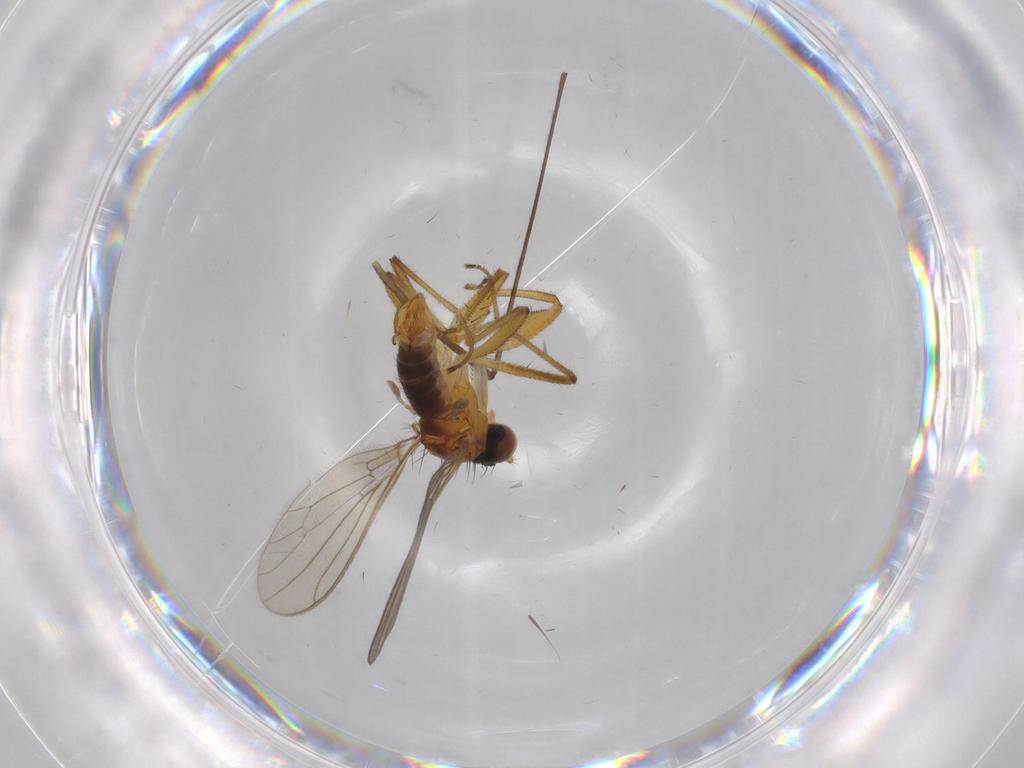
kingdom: Animalia
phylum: Arthropoda
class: Insecta
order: Diptera
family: Empididae
